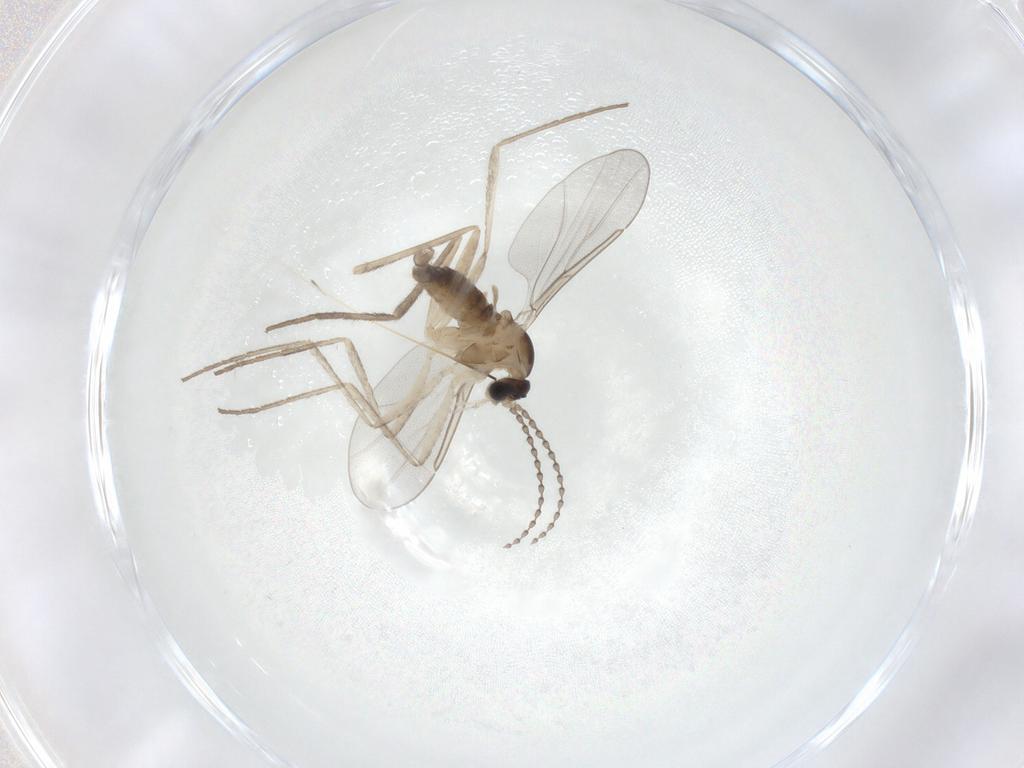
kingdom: Animalia
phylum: Arthropoda
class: Insecta
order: Diptera
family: Cecidomyiidae
